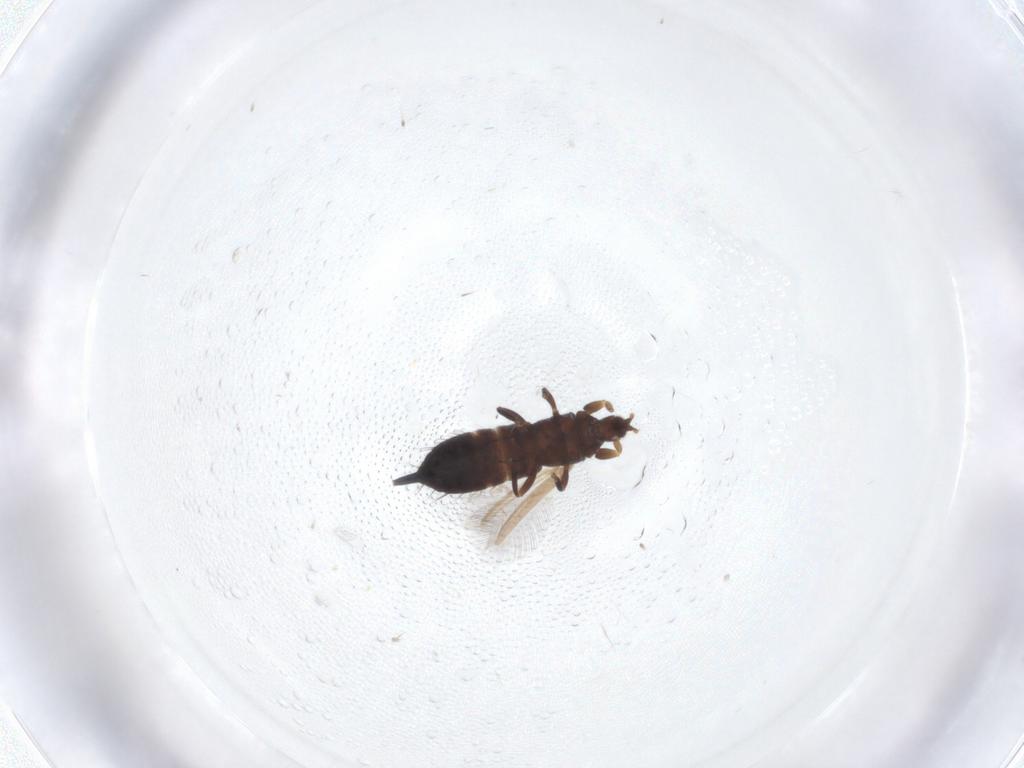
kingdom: Animalia
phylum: Arthropoda
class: Insecta
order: Thysanoptera
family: Phlaeothripidae
